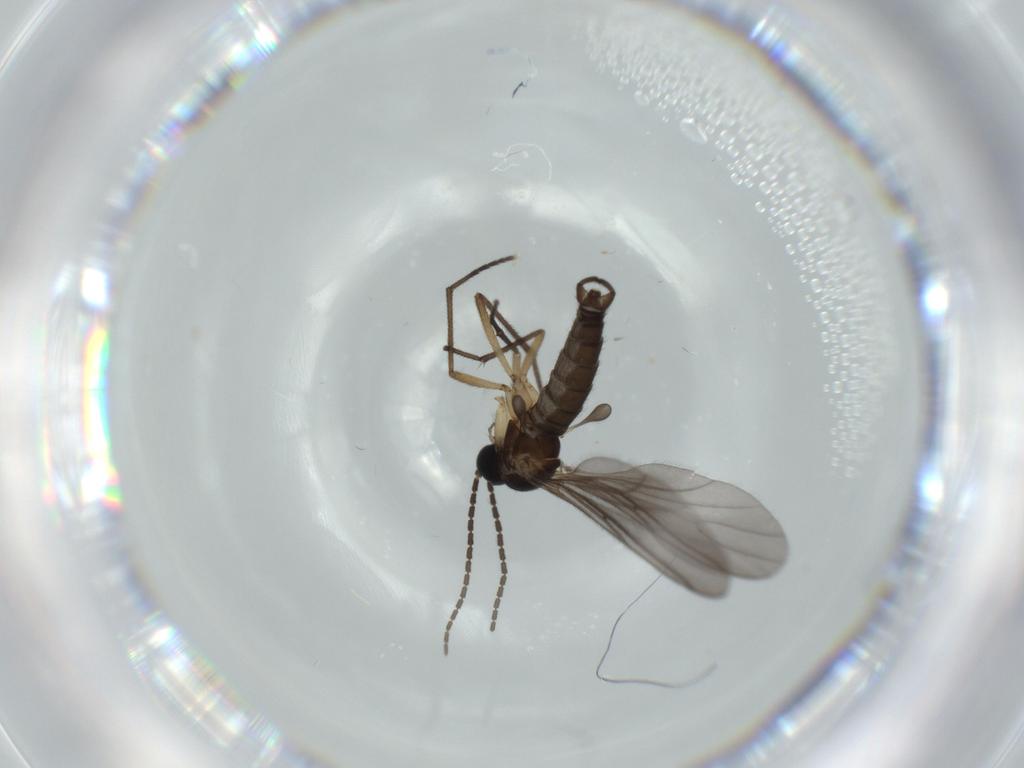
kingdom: Animalia
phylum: Arthropoda
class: Insecta
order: Diptera
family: Sciaridae
